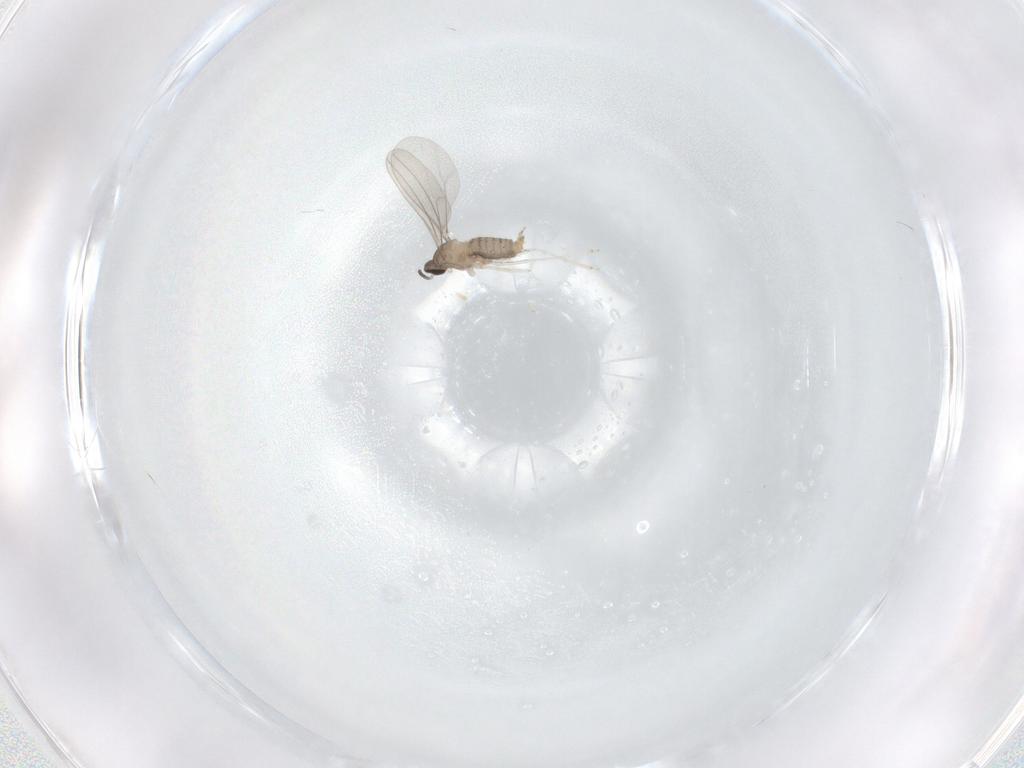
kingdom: Animalia
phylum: Arthropoda
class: Insecta
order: Diptera
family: Cecidomyiidae
